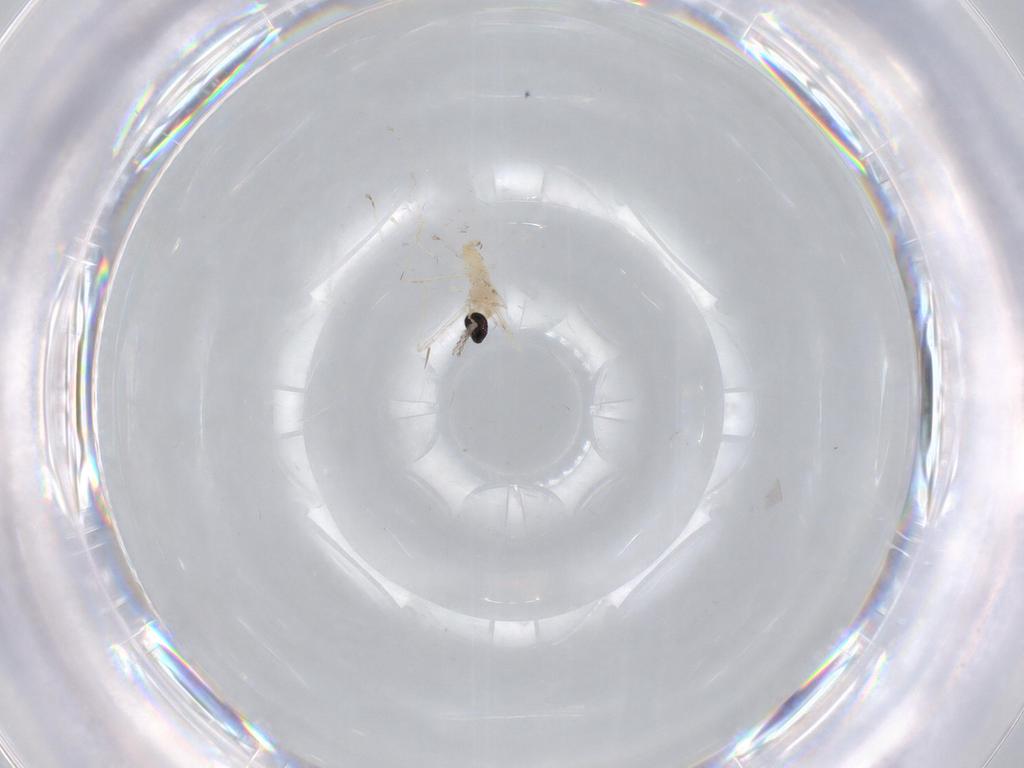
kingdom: Animalia
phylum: Arthropoda
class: Insecta
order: Diptera
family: Cecidomyiidae
